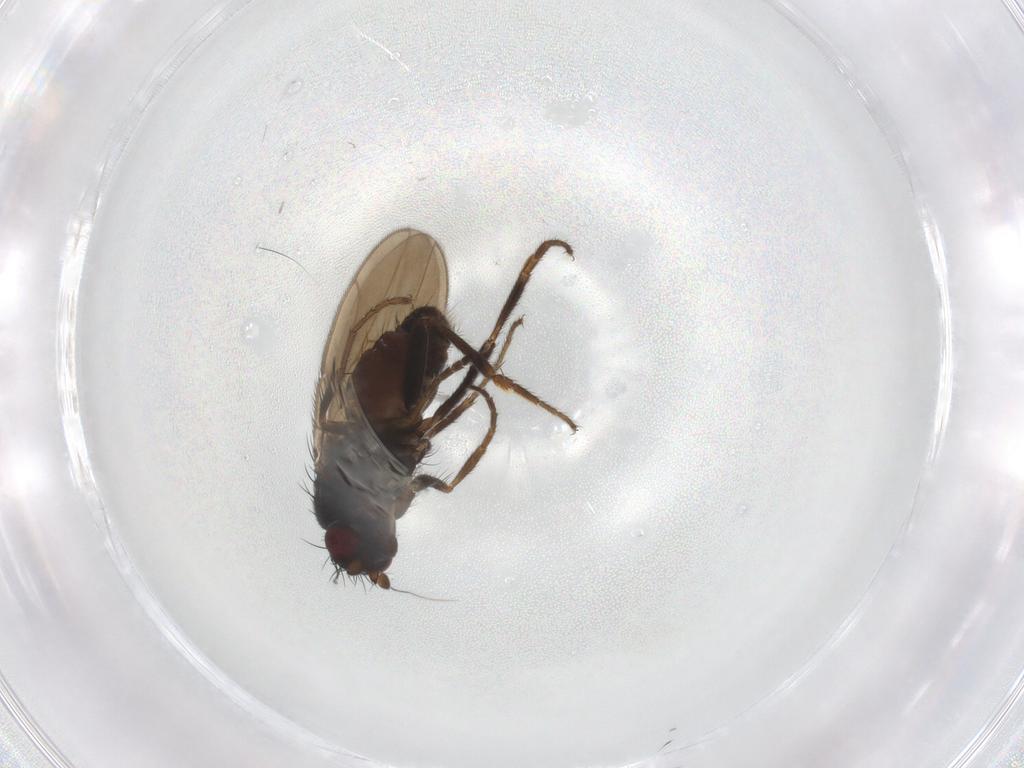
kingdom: Animalia
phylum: Arthropoda
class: Insecta
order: Diptera
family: Sphaeroceridae
